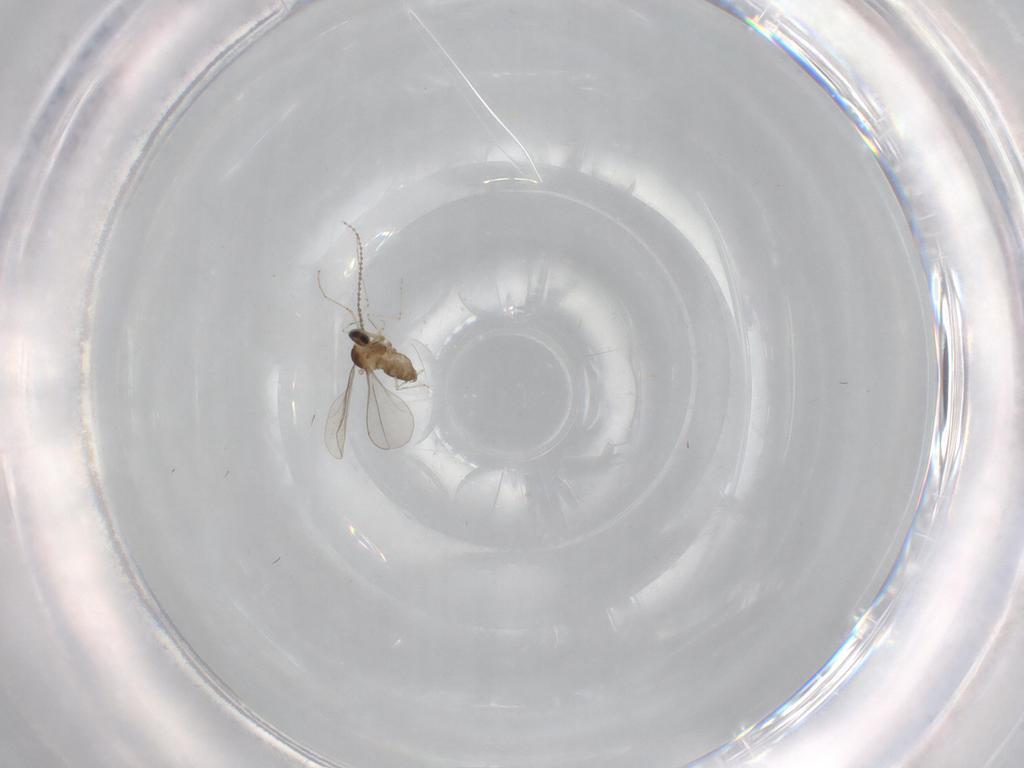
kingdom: Animalia
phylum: Arthropoda
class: Insecta
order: Diptera
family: Cecidomyiidae
